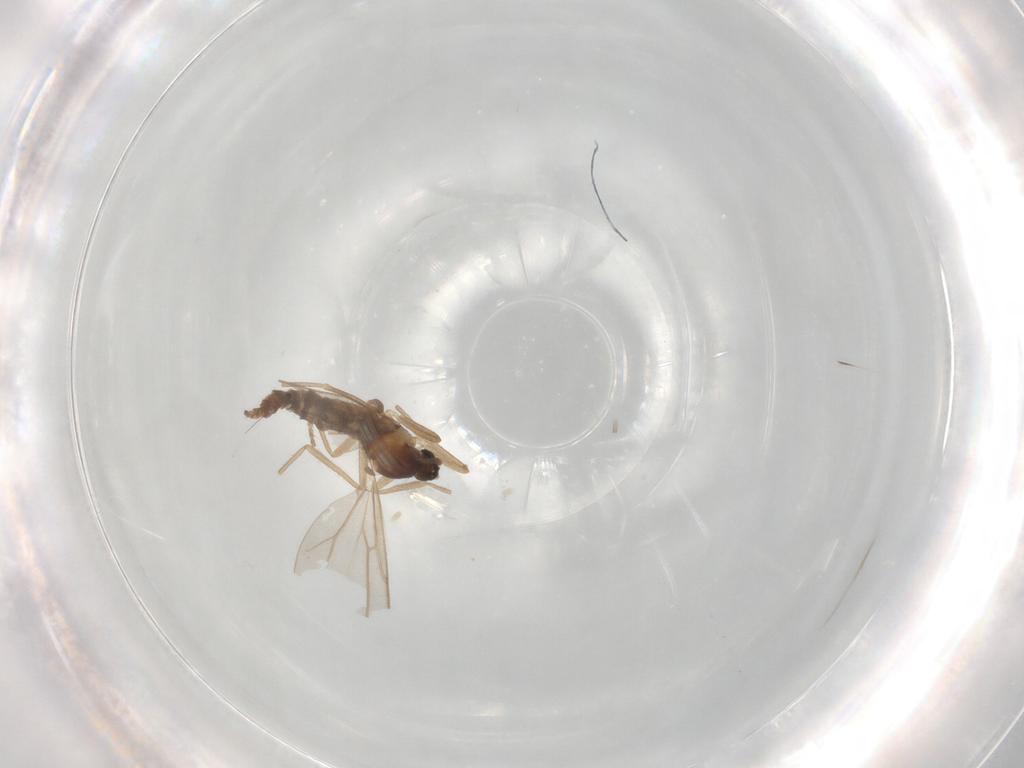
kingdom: Animalia
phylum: Arthropoda
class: Insecta
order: Diptera
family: Cecidomyiidae
